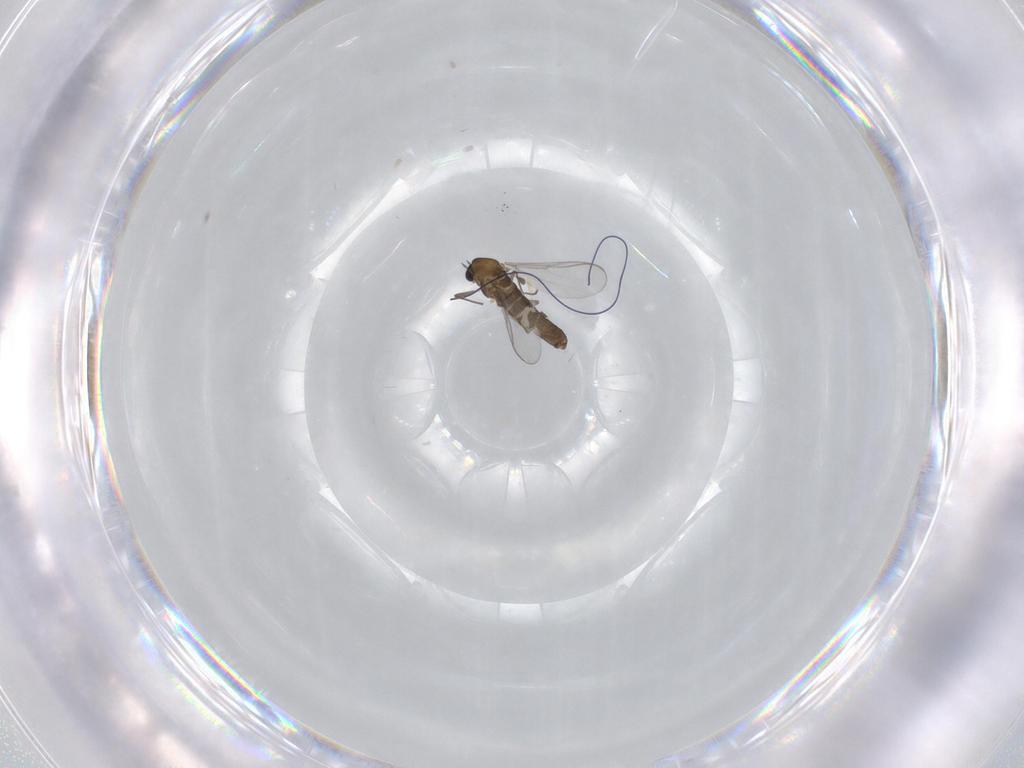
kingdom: Animalia
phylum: Arthropoda
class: Insecta
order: Diptera
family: Chironomidae
